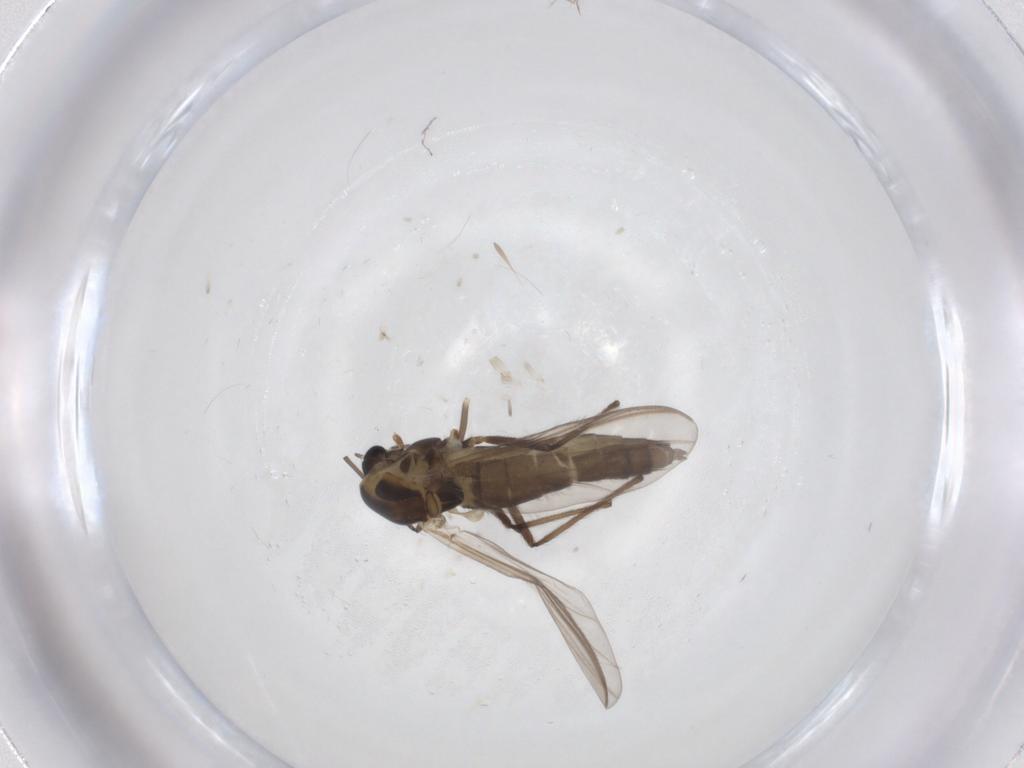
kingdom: Animalia
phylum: Arthropoda
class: Insecta
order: Diptera
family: Chironomidae
